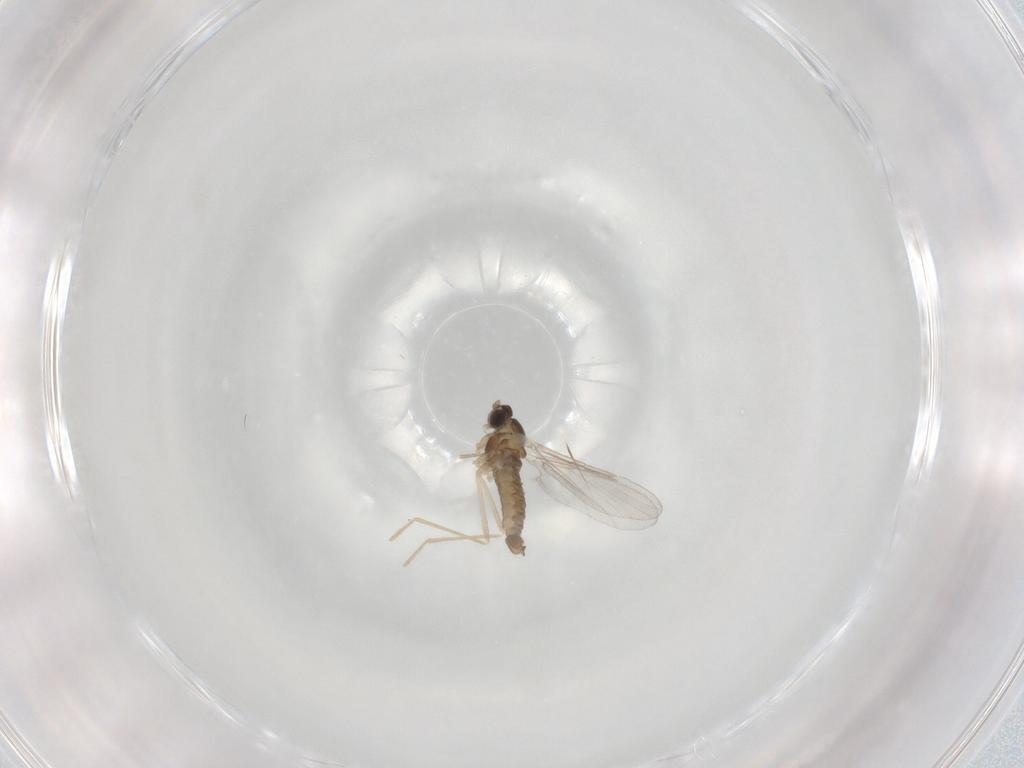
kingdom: Animalia
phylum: Arthropoda
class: Insecta
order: Diptera
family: Cecidomyiidae
